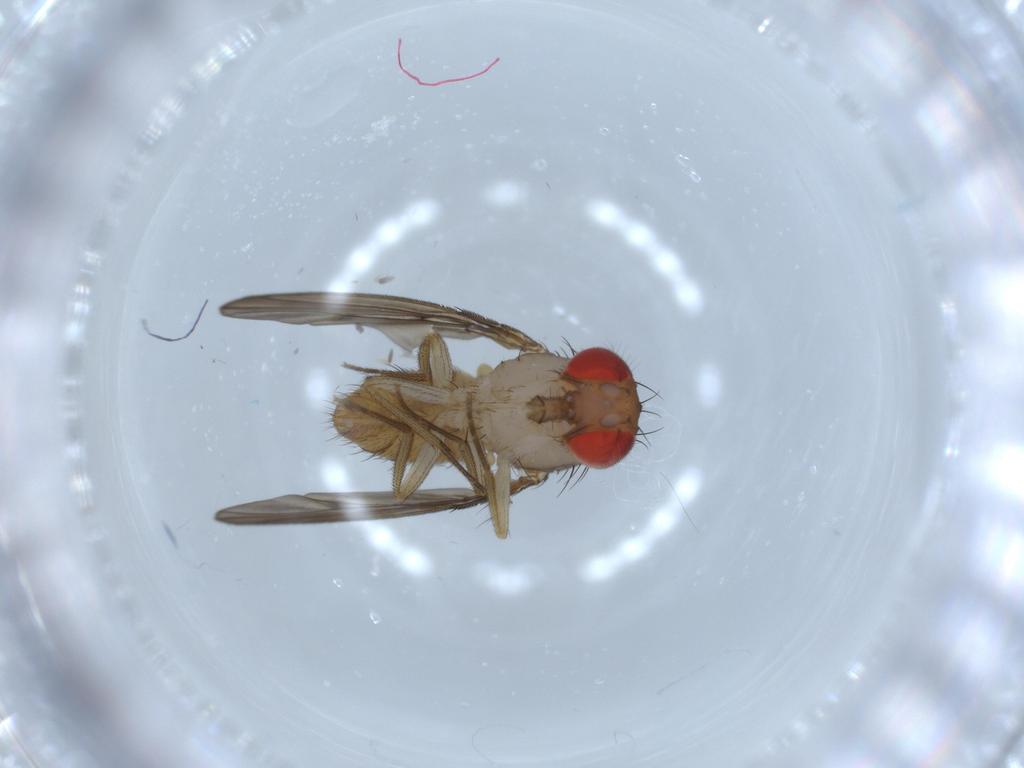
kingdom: Animalia
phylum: Arthropoda
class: Insecta
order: Diptera
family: Drosophilidae
